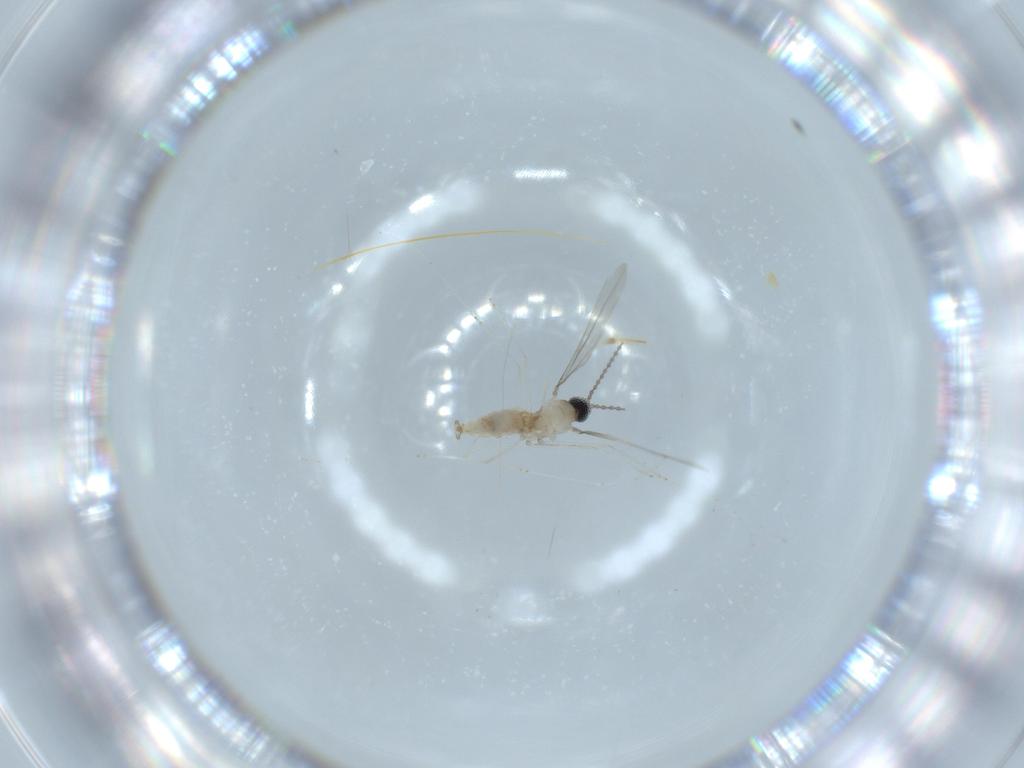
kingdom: Animalia
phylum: Arthropoda
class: Insecta
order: Diptera
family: Cecidomyiidae
